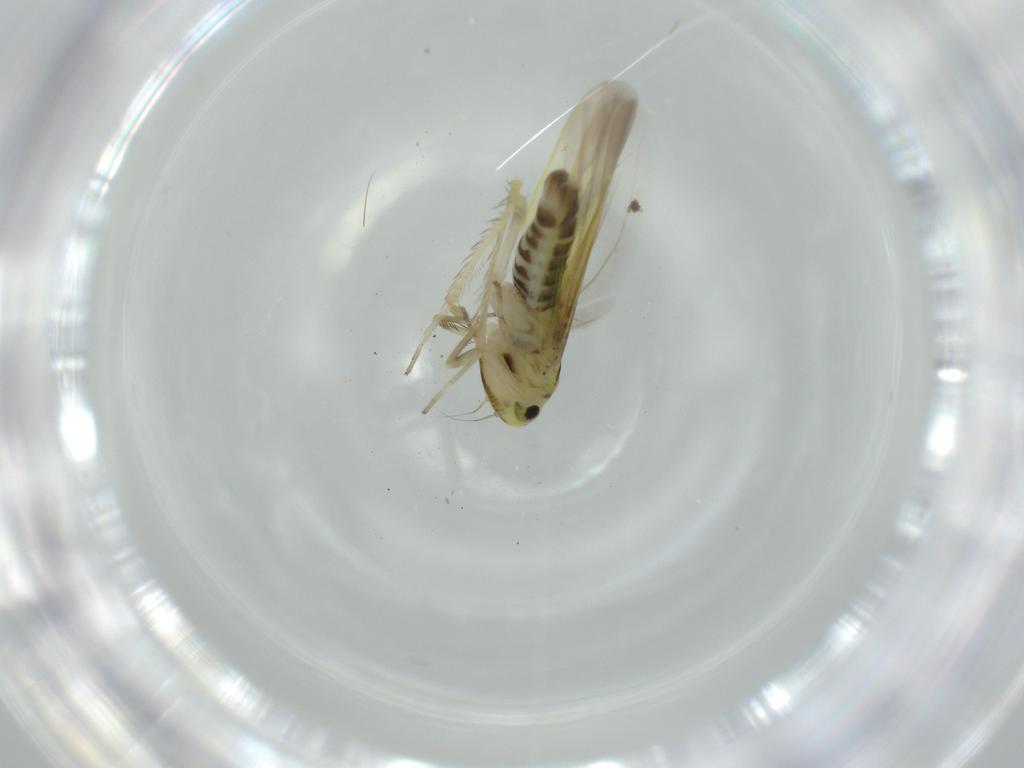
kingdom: Animalia
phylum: Arthropoda
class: Insecta
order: Hemiptera
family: Cicadellidae
